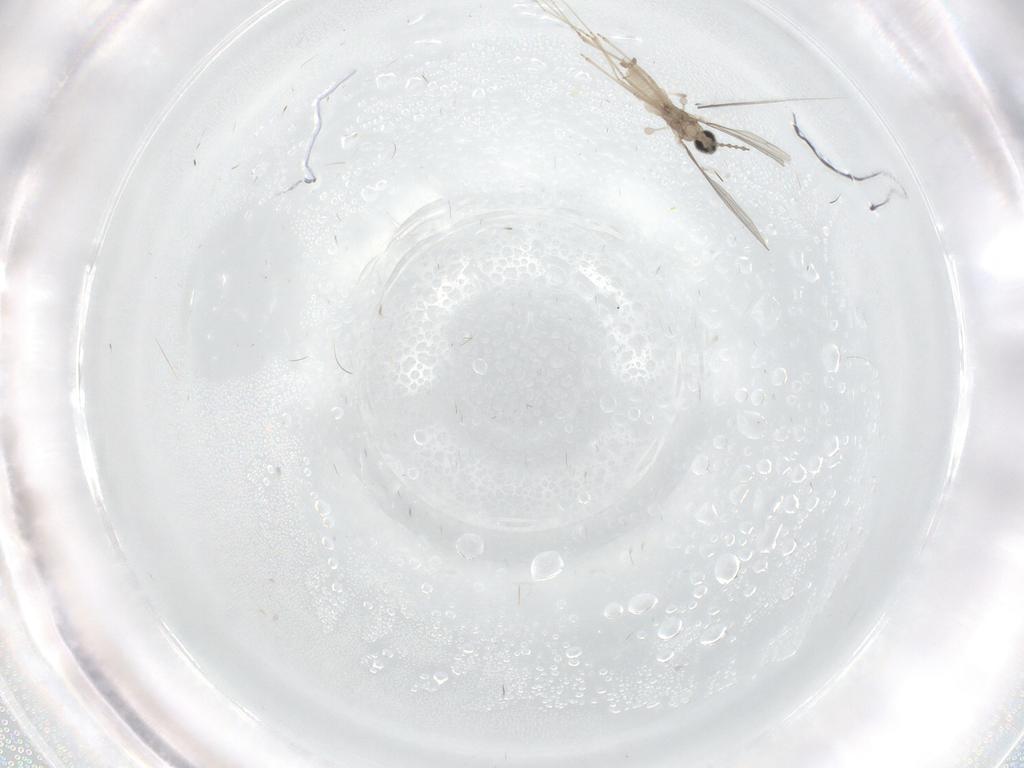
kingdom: Animalia
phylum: Arthropoda
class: Insecta
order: Diptera
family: Cecidomyiidae
